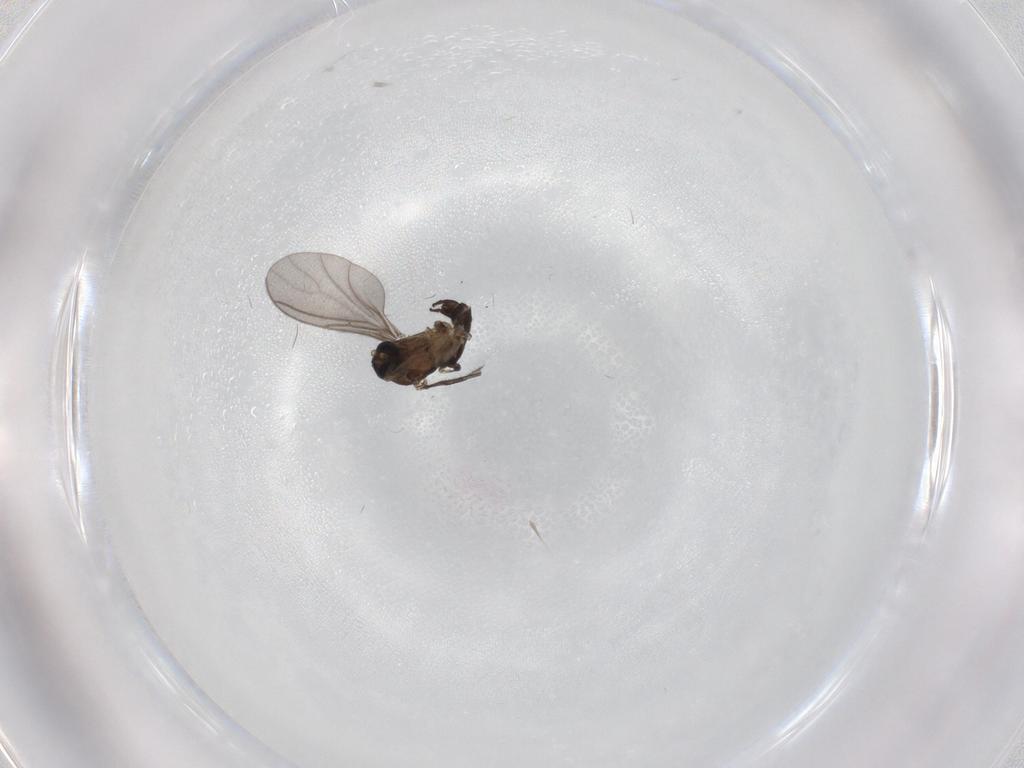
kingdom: Animalia
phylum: Arthropoda
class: Insecta
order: Diptera
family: Sciaridae
